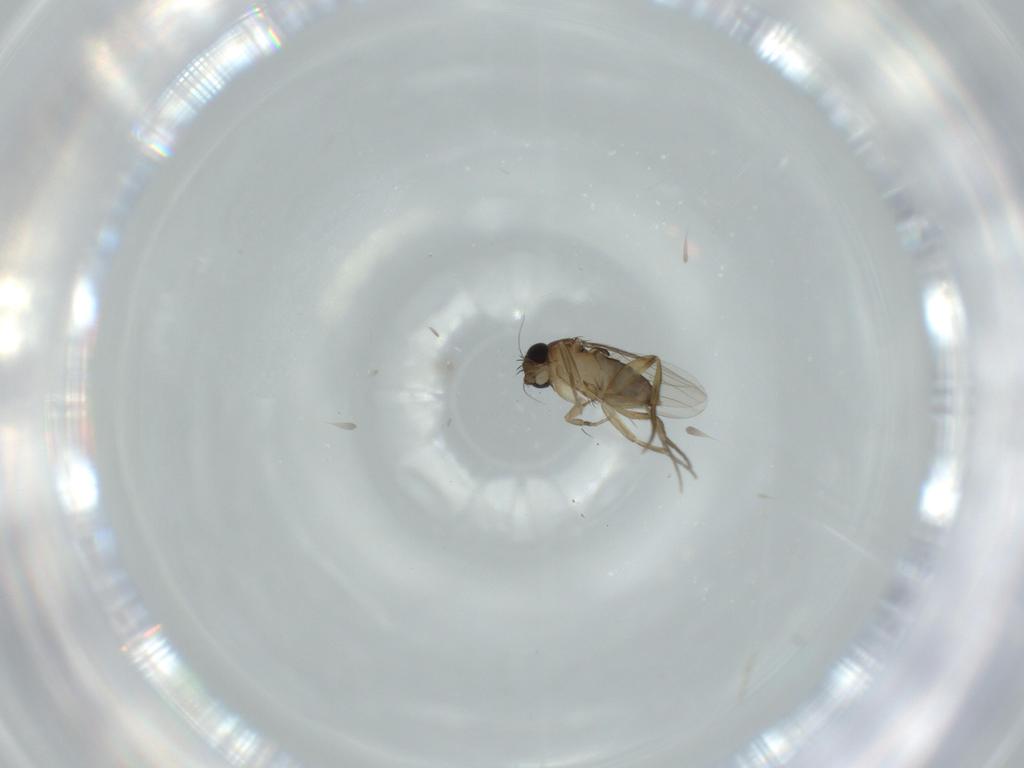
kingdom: Animalia
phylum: Arthropoda
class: Insecta
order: Diptera
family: Phoridae
